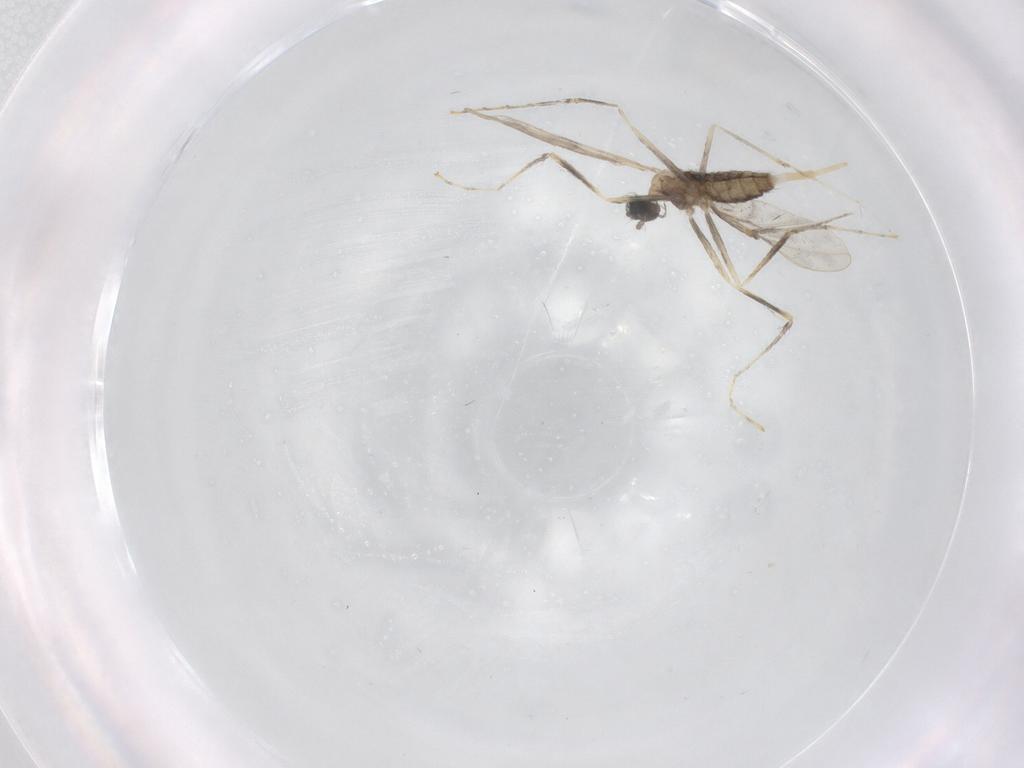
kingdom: Animalia
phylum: Arthropoda
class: Insecta
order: Diptera
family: Cecidomyiidae
